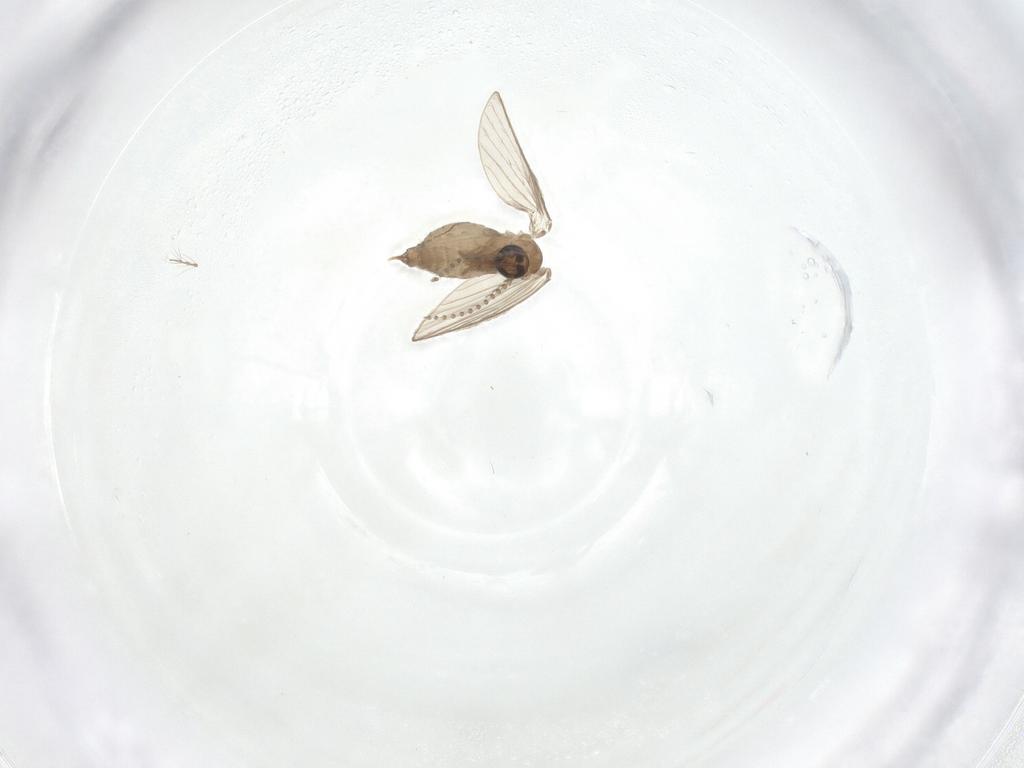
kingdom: Animalia
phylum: Arthropoda
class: Insecta
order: Diptera
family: Psychodidae
